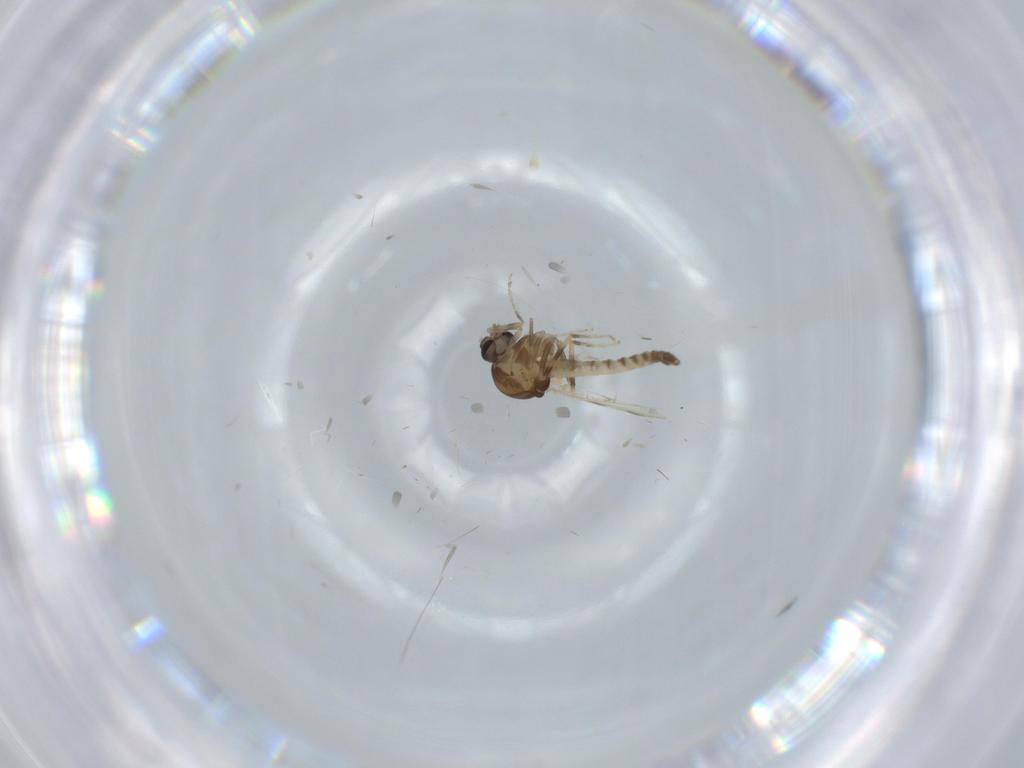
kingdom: Animalia
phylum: Arthropoda
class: Insecta
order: Diptera
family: Ceratopogonidae
